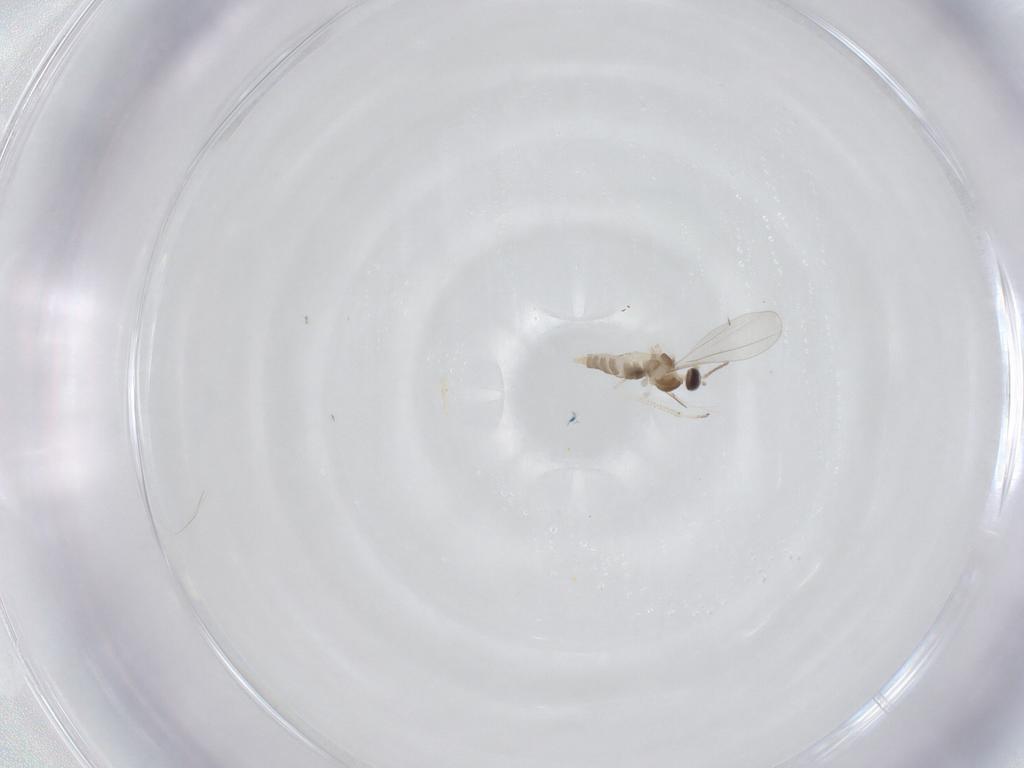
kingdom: Animalia
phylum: Arthropoda
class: Insecta
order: Diptera
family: Cecidomyiidae
